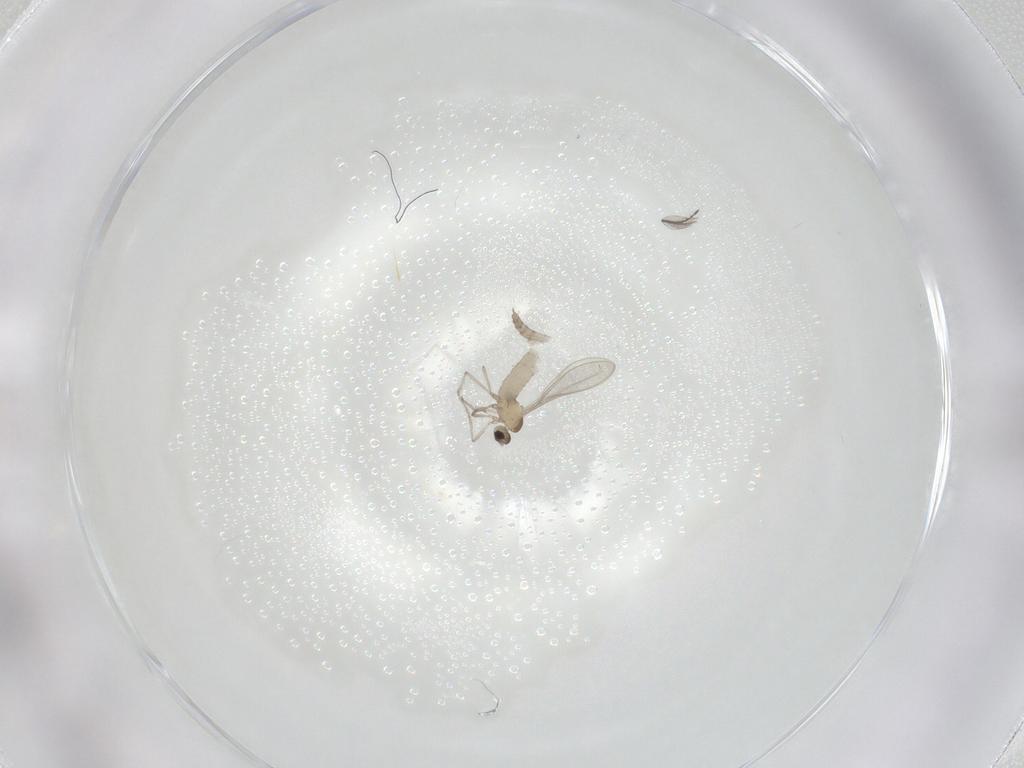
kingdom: Animalia
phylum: Arthropoda
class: Insecta
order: Diptera
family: Cecidomyiidae
